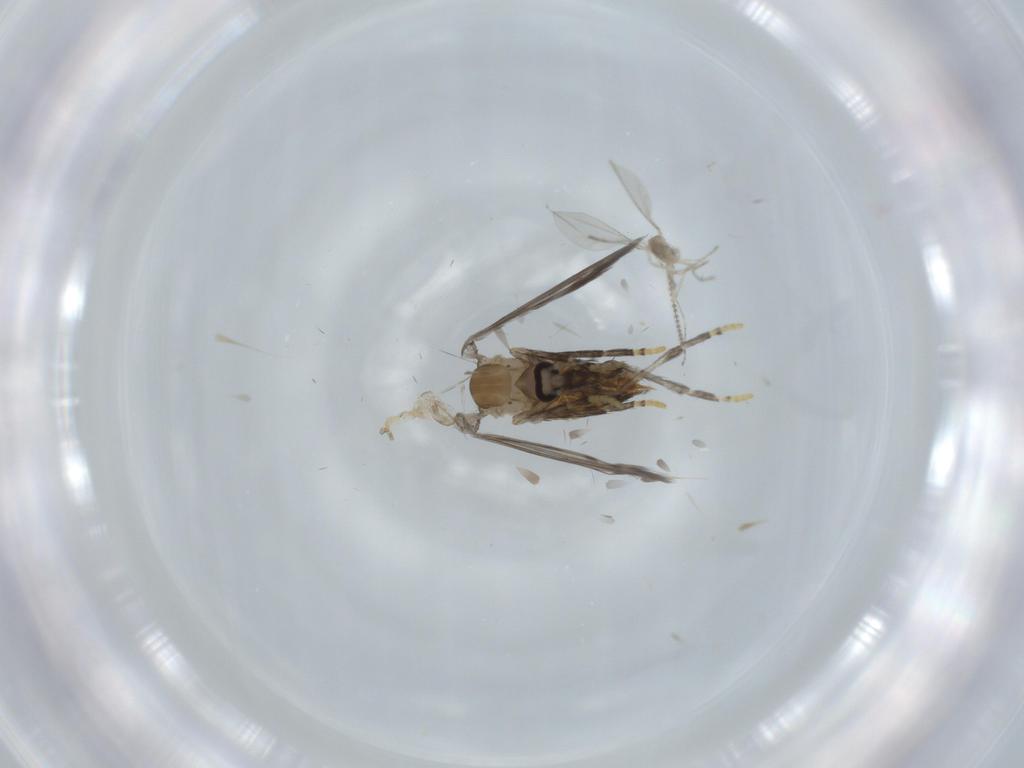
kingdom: Animalia
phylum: Arthropoda
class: Insecta
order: Diptera
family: Psychodidae
